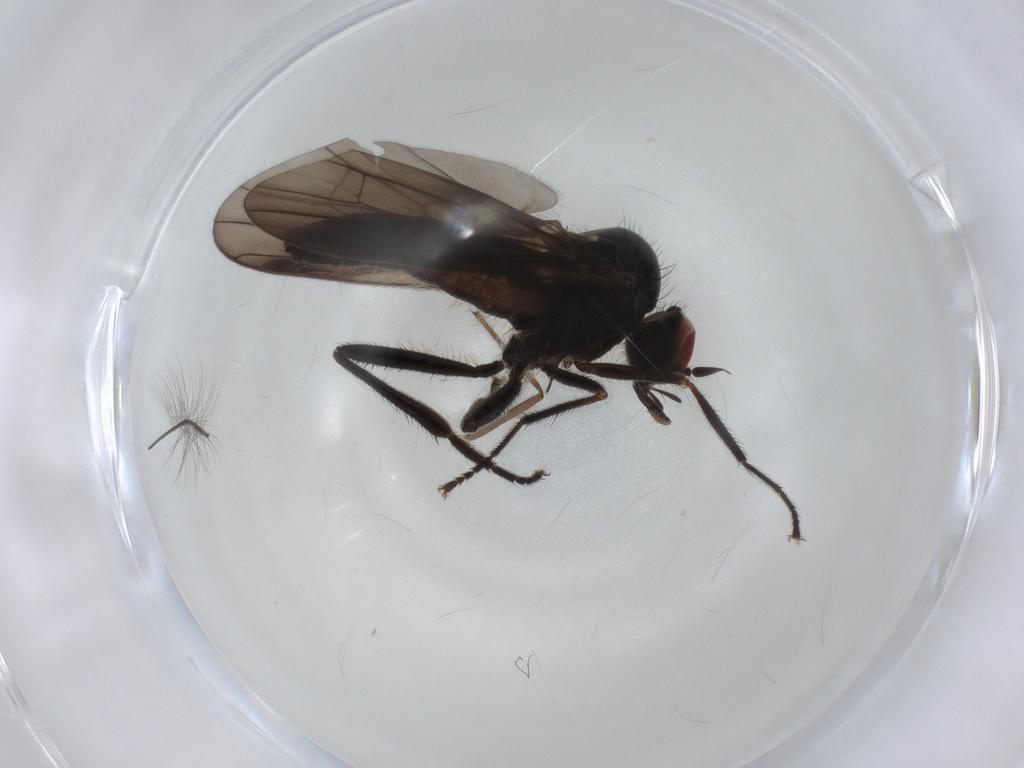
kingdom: Animalia
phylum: Arthropoda
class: Insecta
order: Diptera
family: Hybotidae
